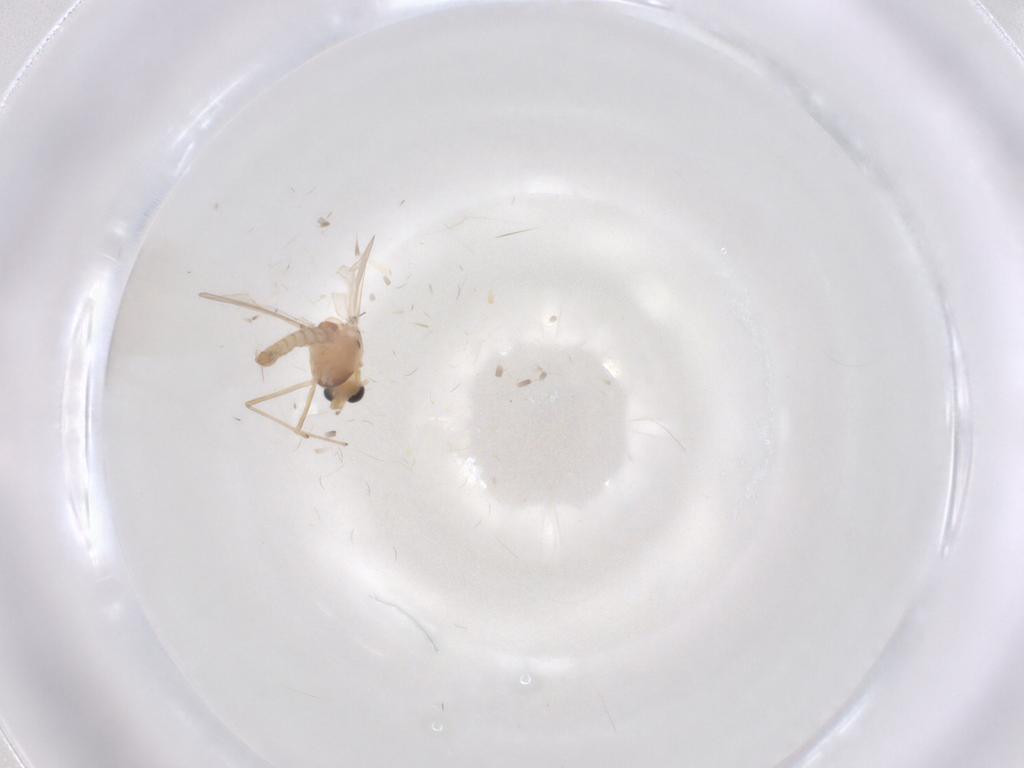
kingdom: Animalia
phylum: Arthropoda
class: Insecta
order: Diptera
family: Chironomidae
